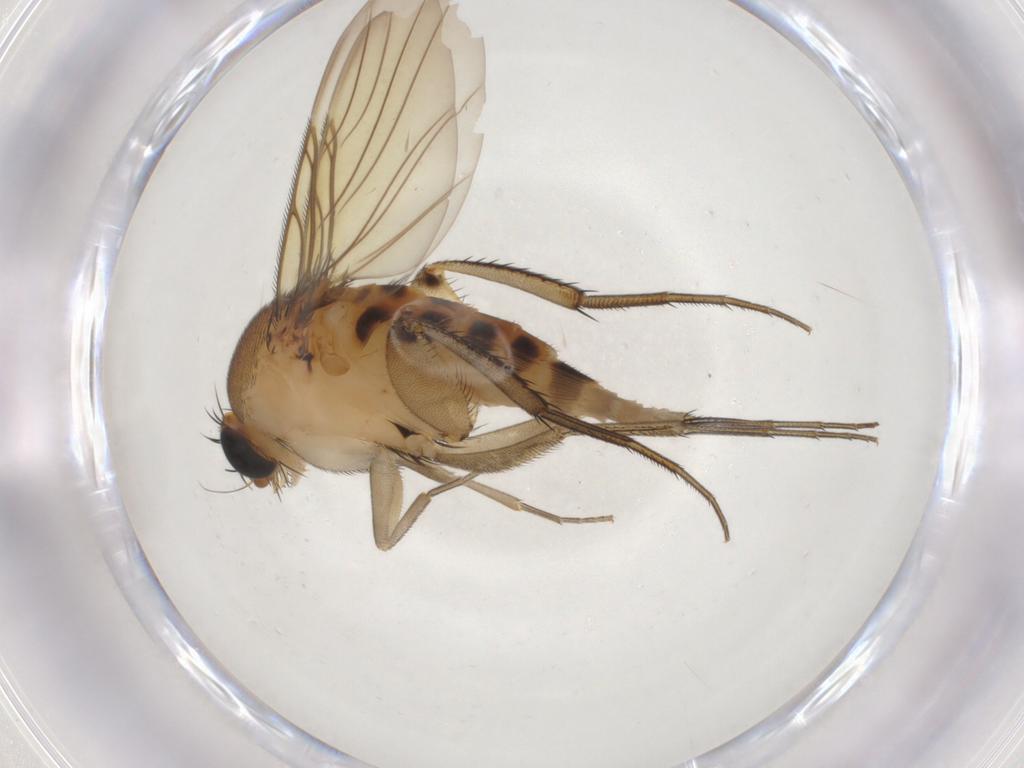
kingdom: Animalia
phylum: Arthropoda
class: Insecta
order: Diptera
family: Ceratopogonidae
